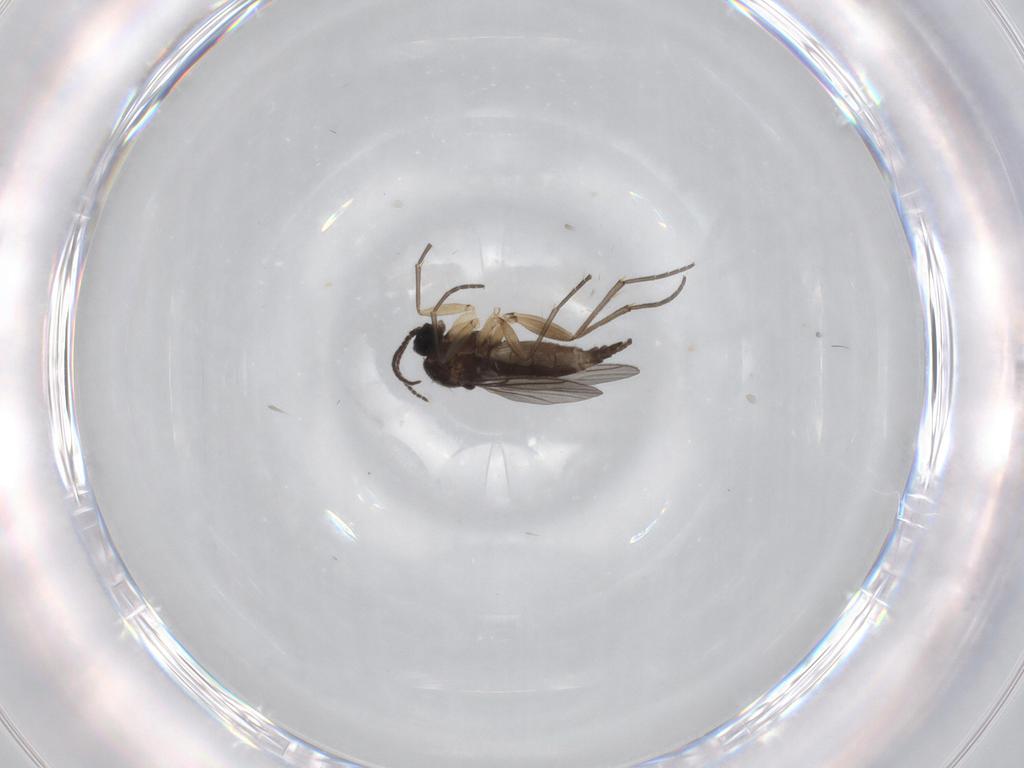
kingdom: Animalia
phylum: Arthropoda
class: Insecta
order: Diptera
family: Sciaridae
